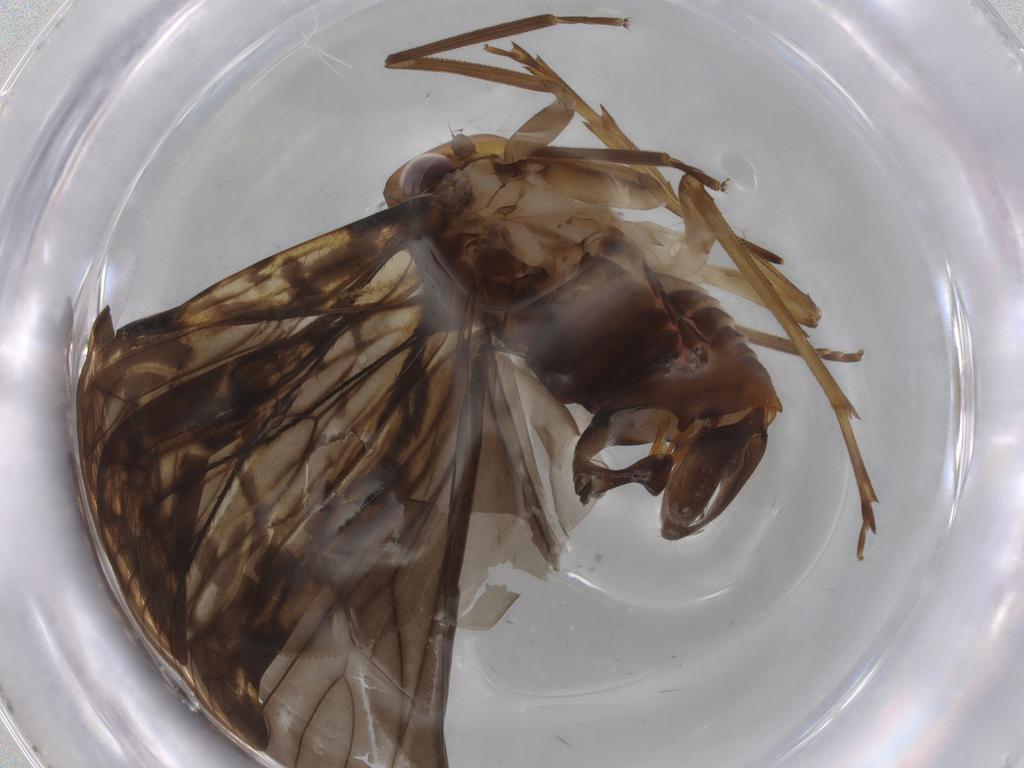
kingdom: Animalia
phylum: Arthropoda
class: Insecta
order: Hemiptera
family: Cixiidae
